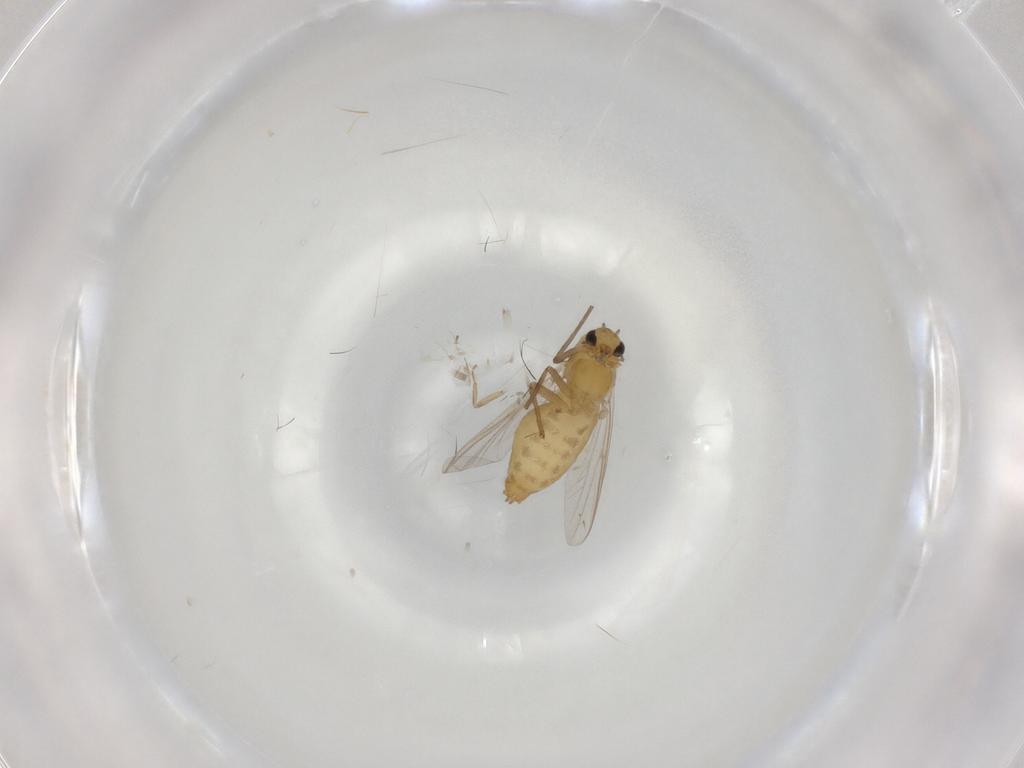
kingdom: Animalia
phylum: Arthropoda
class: Insecta
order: Diptera
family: Chironomidae
